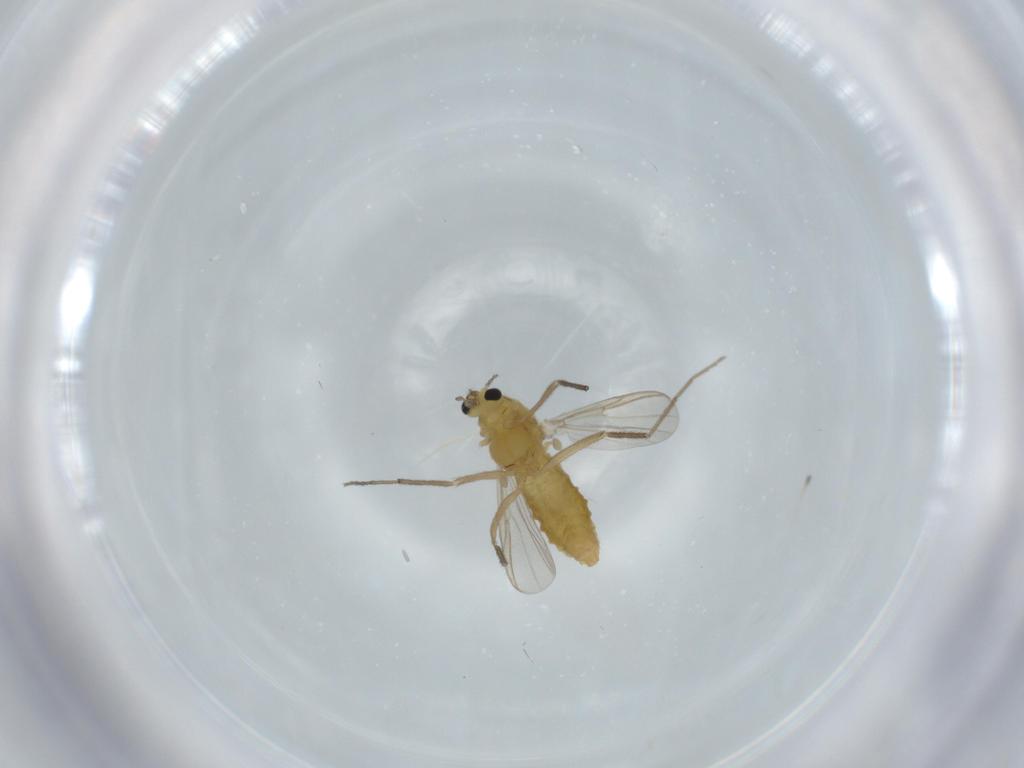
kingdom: Animalia
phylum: Arthropoda
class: Insecta
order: Diptera
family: Chironomidae
